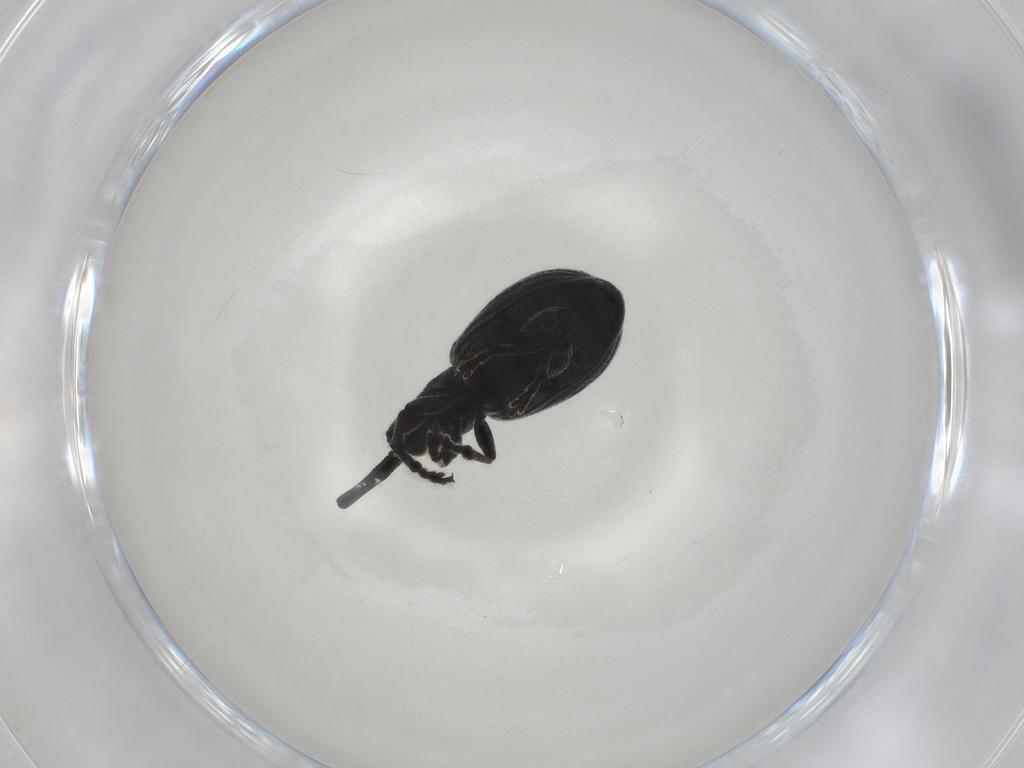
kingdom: Animalia
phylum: Arthropoda
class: Insecta
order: Coleoptera
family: Brentidae
